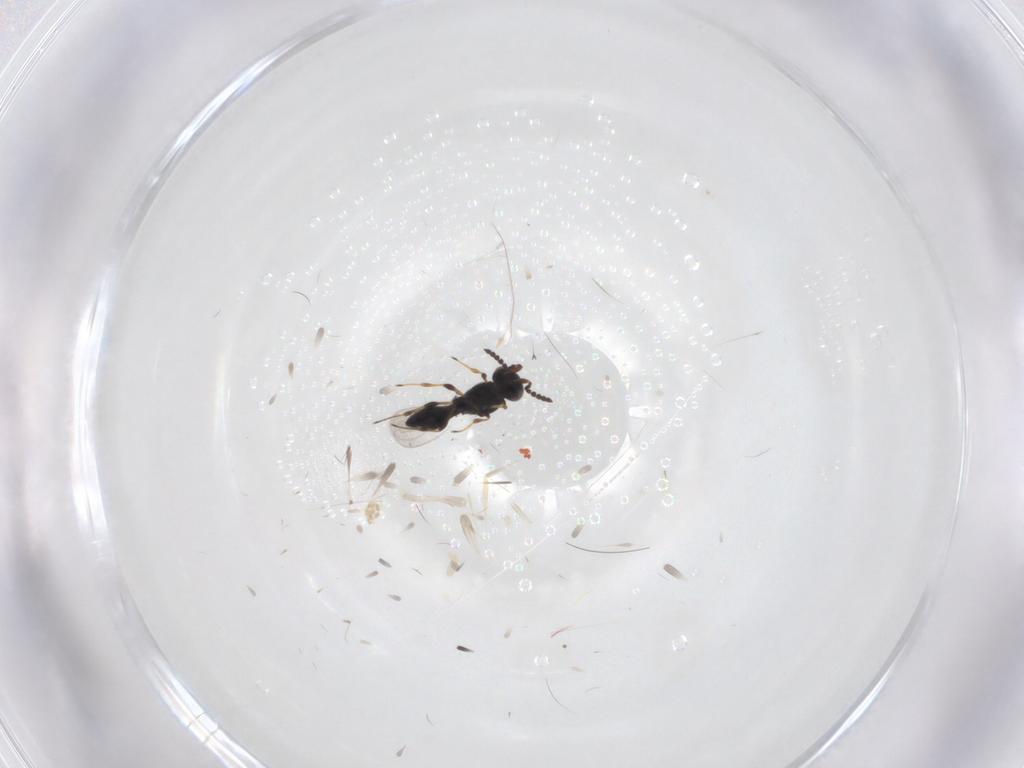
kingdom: Animalia
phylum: Arthropoda
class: Insecta
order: Hymenoptera
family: Platygastridae
